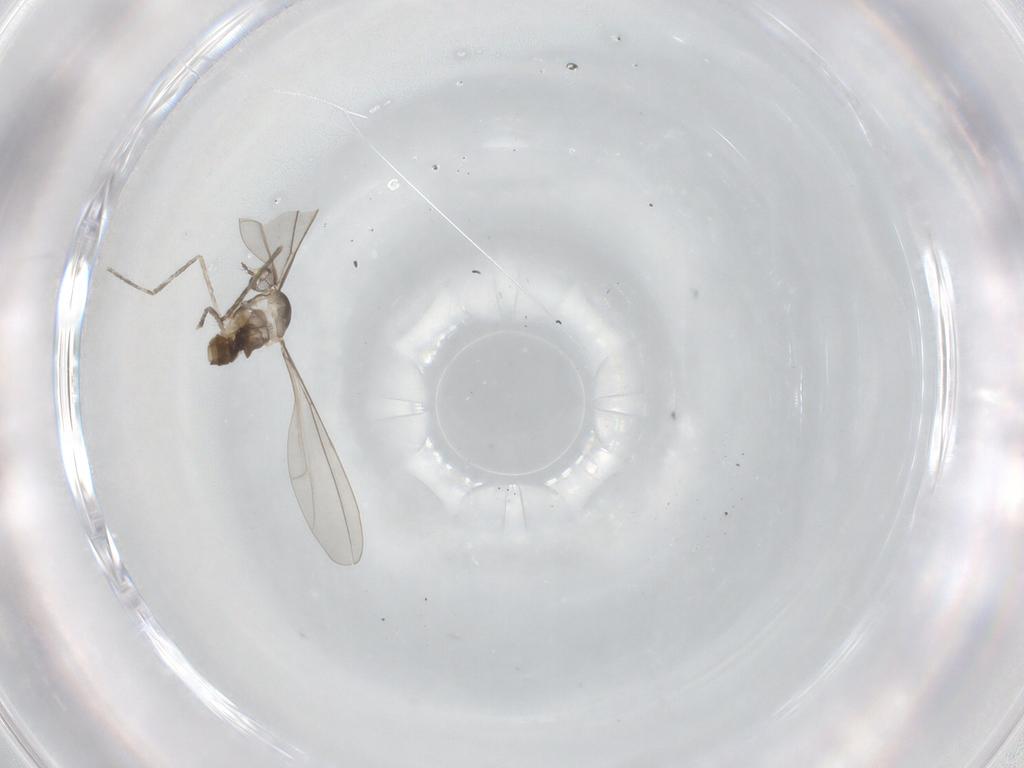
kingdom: Animalia
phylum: Arthropoda
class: Insecta
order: Diptera
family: Cecidomyiidae
